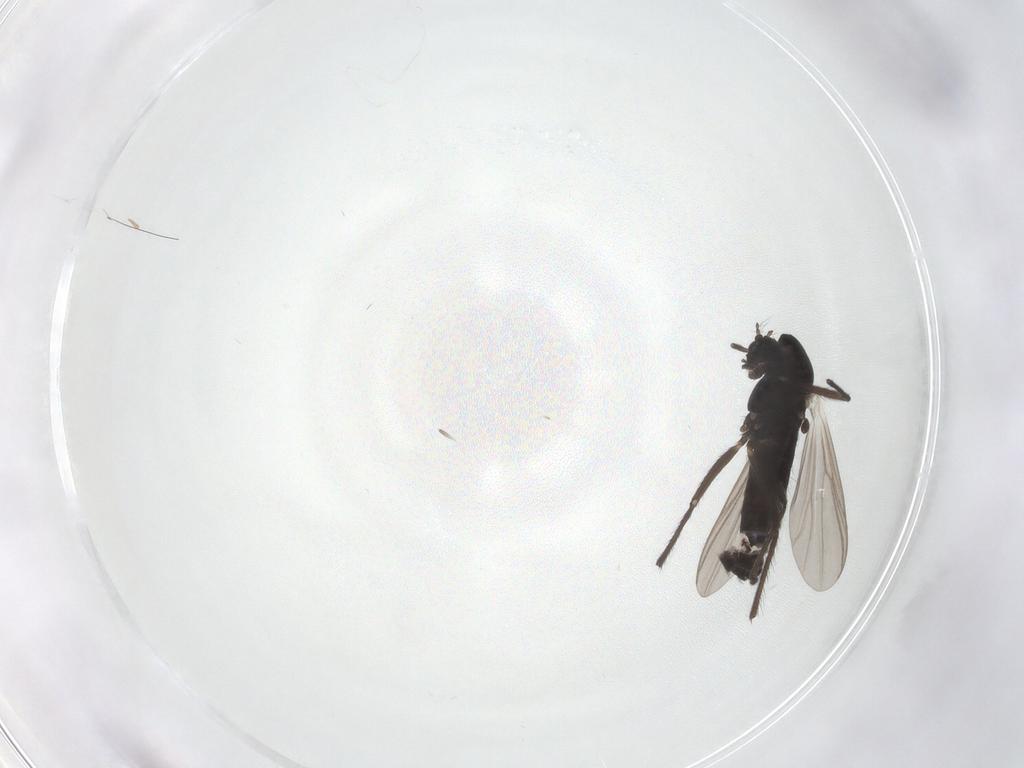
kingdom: Animalia
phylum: Arthropoda
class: Insecta
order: Diptera
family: Chironomidae
